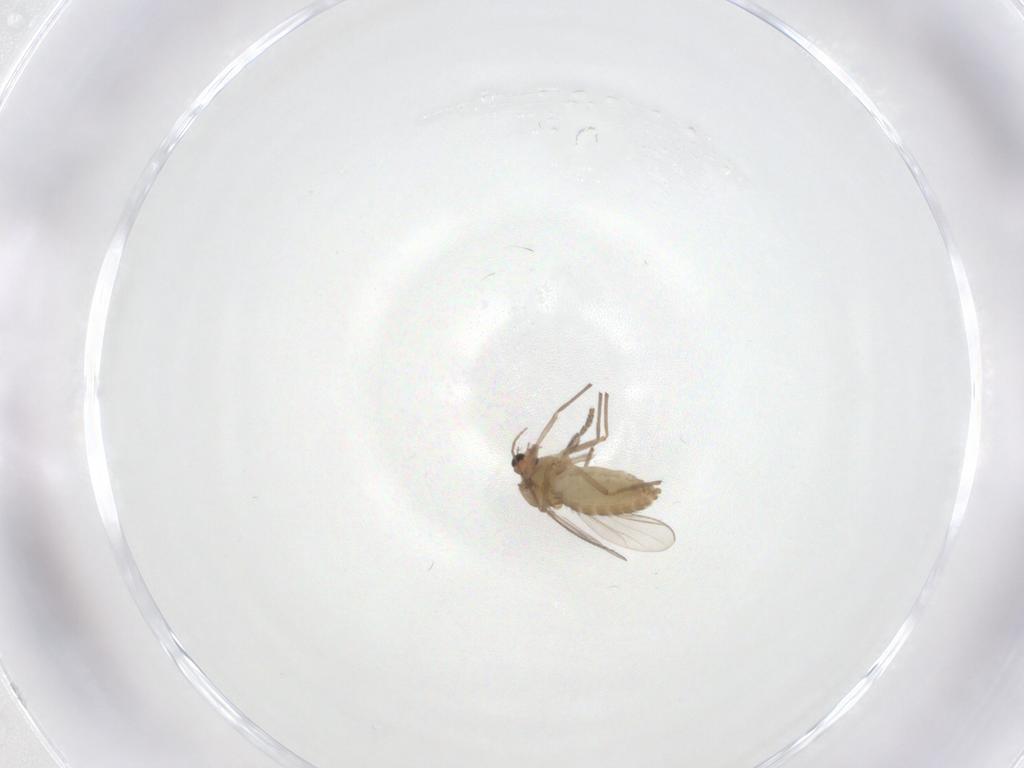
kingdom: Animalia
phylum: Arthropoda
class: Insecta
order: Diptera
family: Chironomidae
